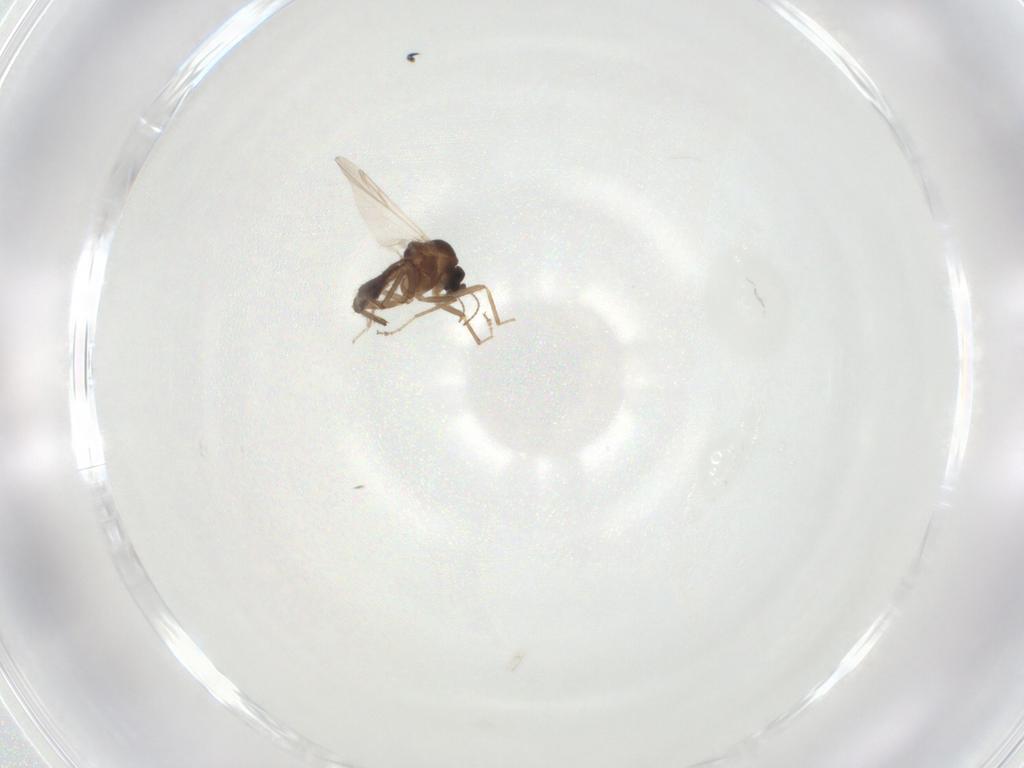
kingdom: Animalia
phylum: Arthropoda
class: Insecta
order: Diptera
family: Ceratopogonidae
